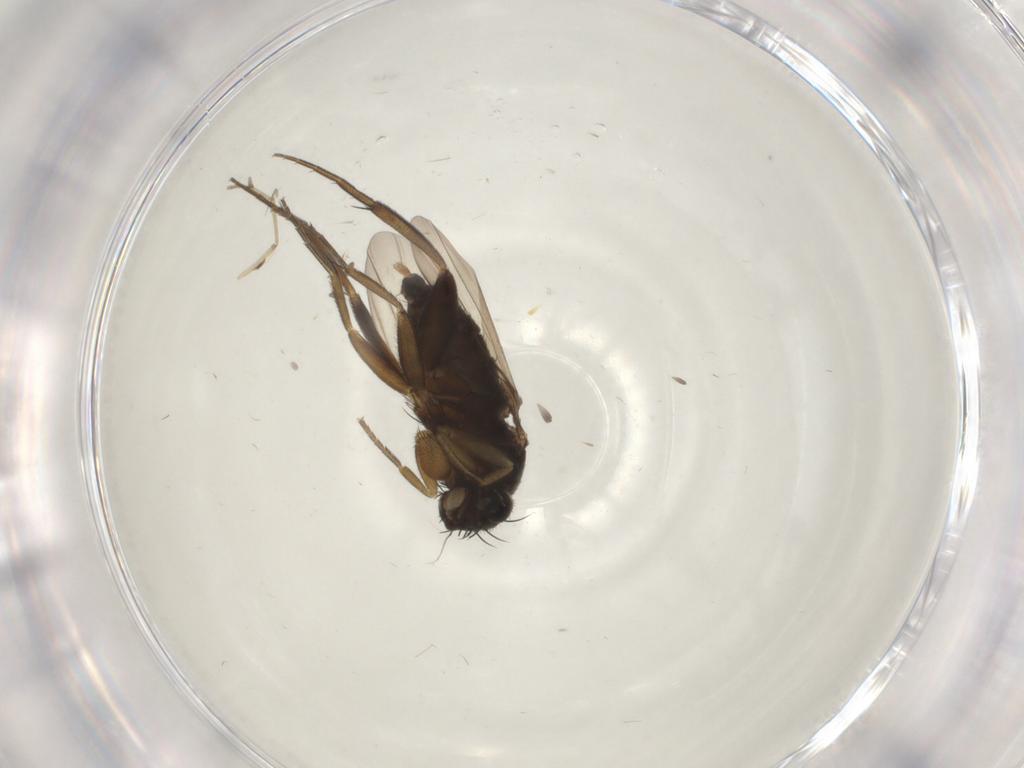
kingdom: Animalia
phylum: Arthropoda
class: Insecta
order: Diptera
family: Phoridae
